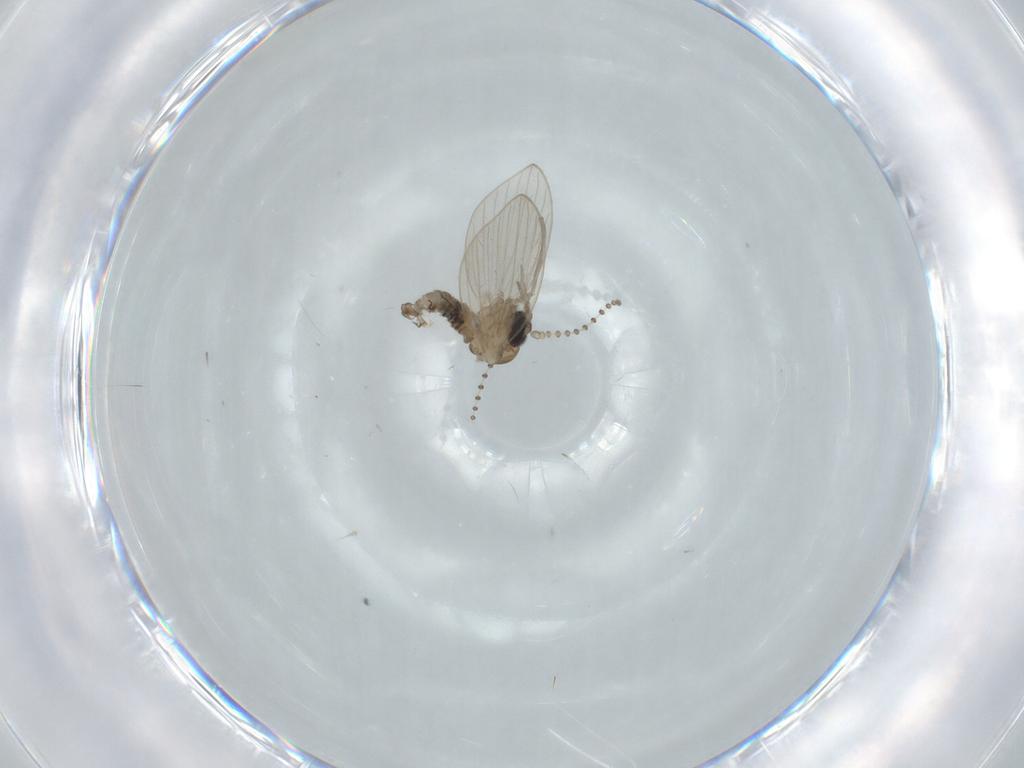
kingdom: Animalia
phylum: Arthropoda
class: Insecta
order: Diptera
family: Psychodidae
